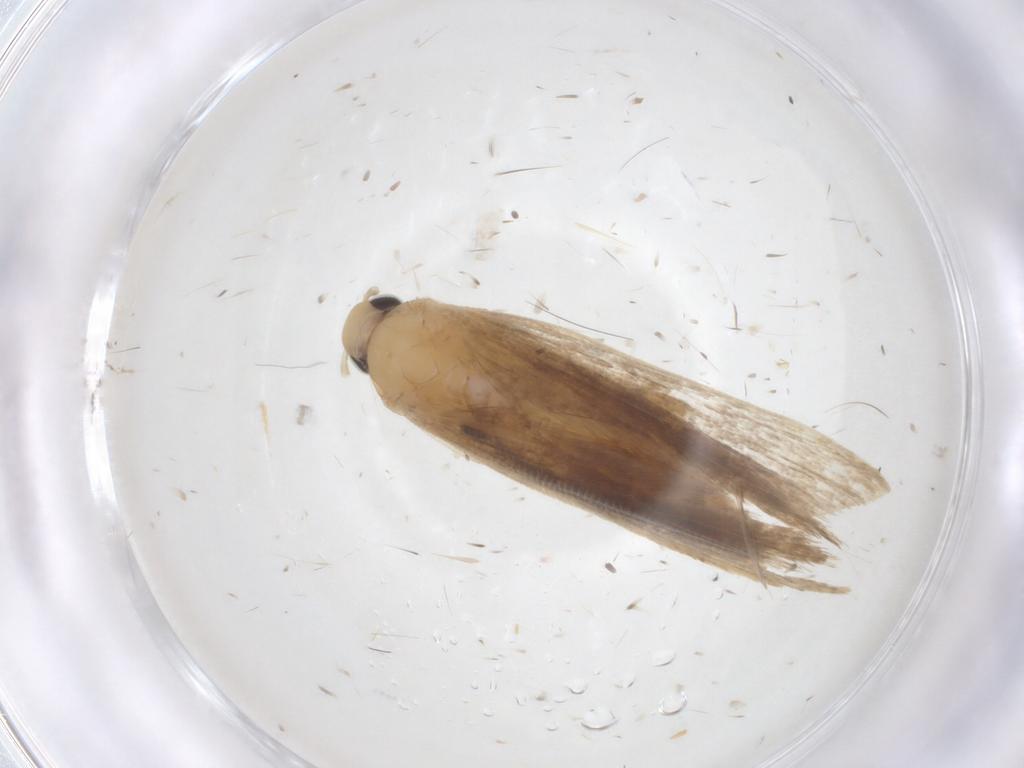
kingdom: Animalia
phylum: Arthropoda
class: Insecta
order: Lepidoptera
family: Gelechiidae
